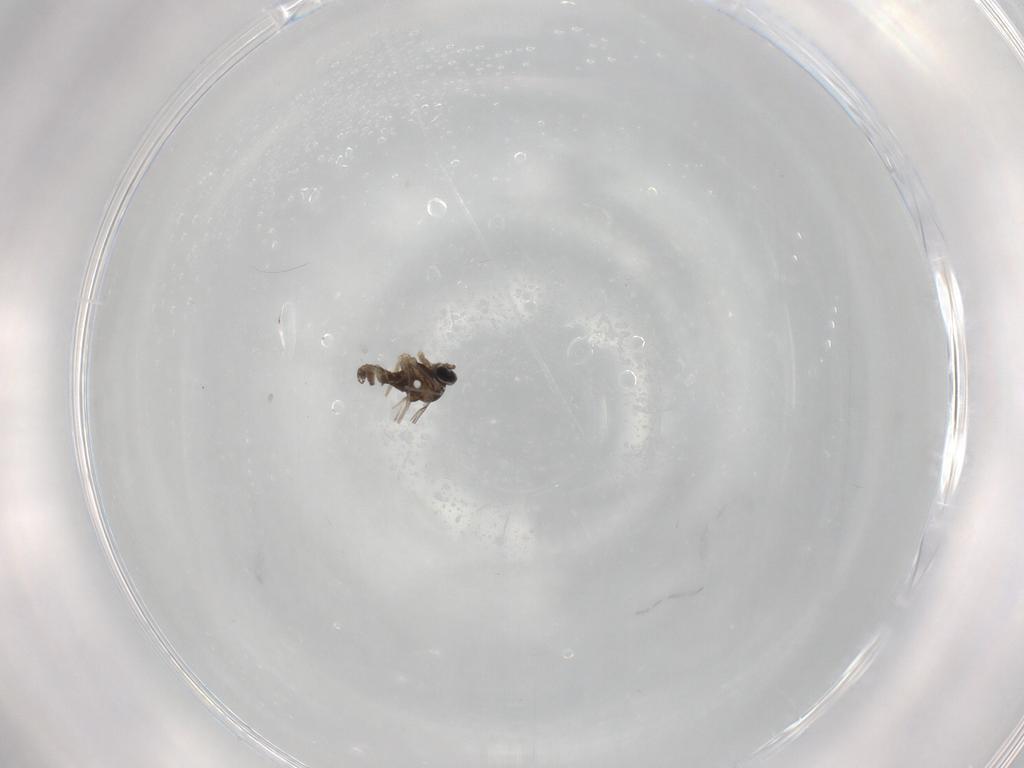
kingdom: Animalia
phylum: Arthropoda
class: Insecta
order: Diptera
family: Cecidomyiidae
